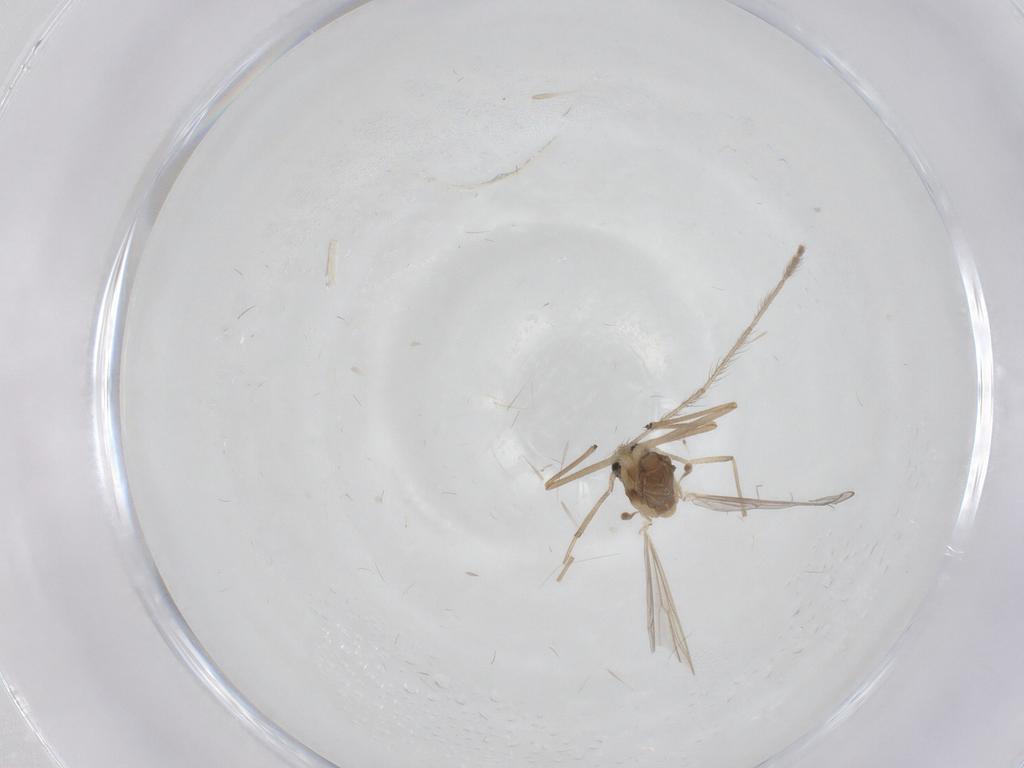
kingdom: Animalia
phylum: Arthropoda
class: Insecta
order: Diptera
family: Chironomidae
